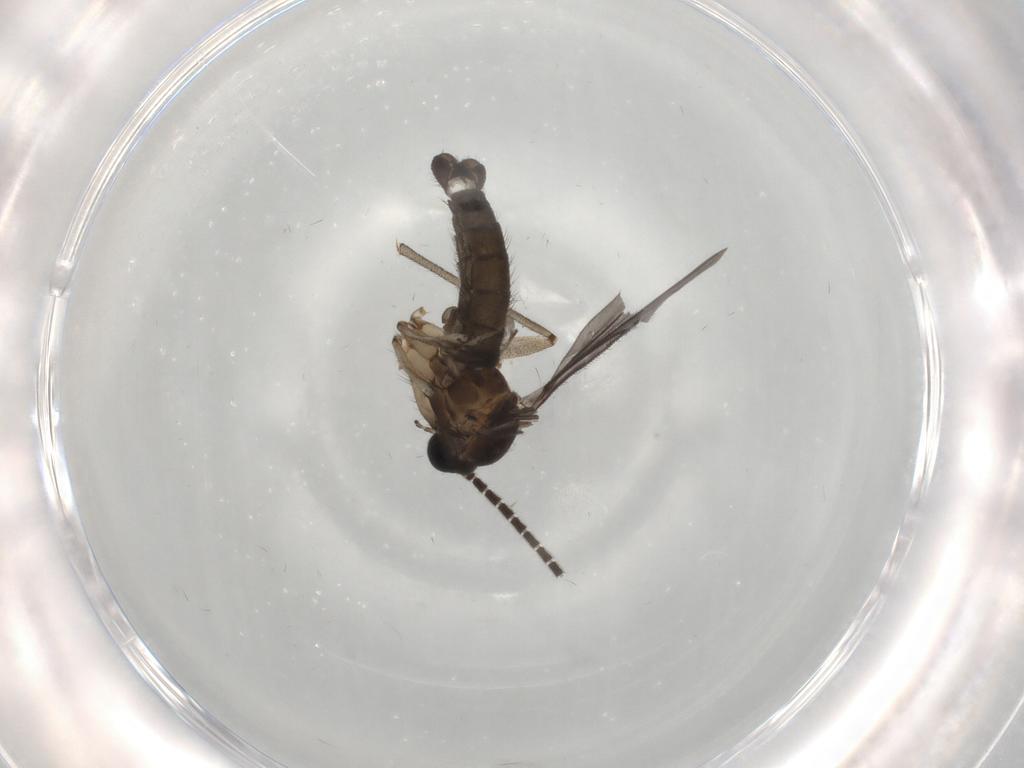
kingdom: Animalia
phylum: Arthropoda
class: Insecta
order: Diptera
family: Sciaridae
